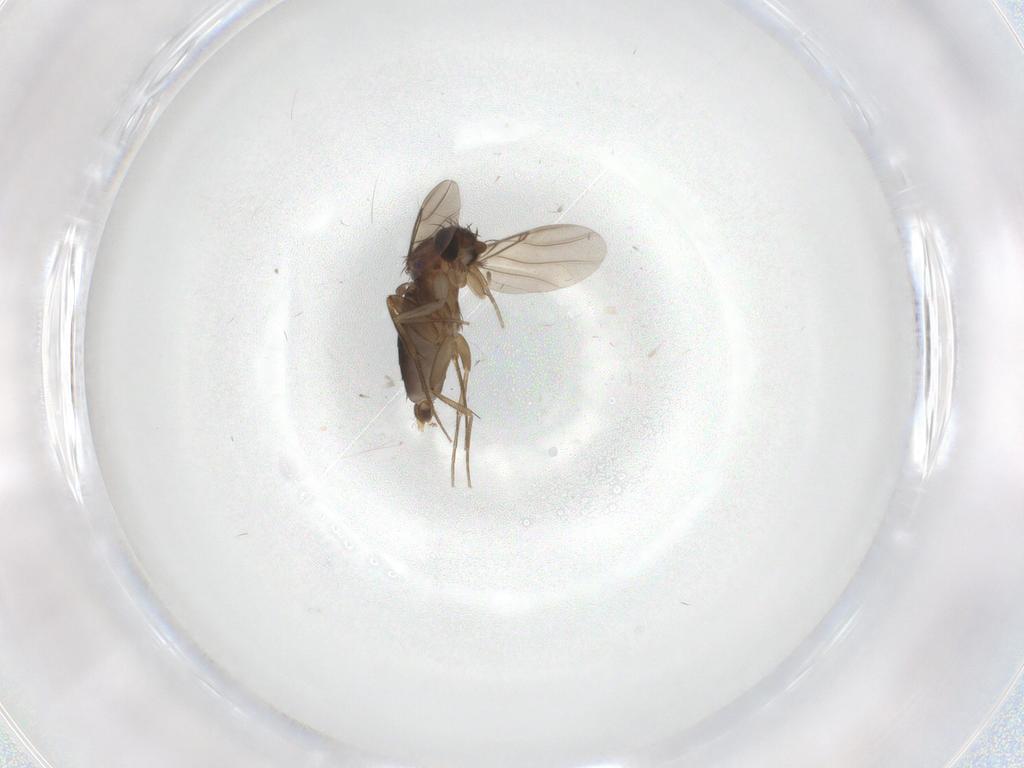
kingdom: Animalia
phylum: Arthropoda
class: Insecta
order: Diptera
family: Phoridae
